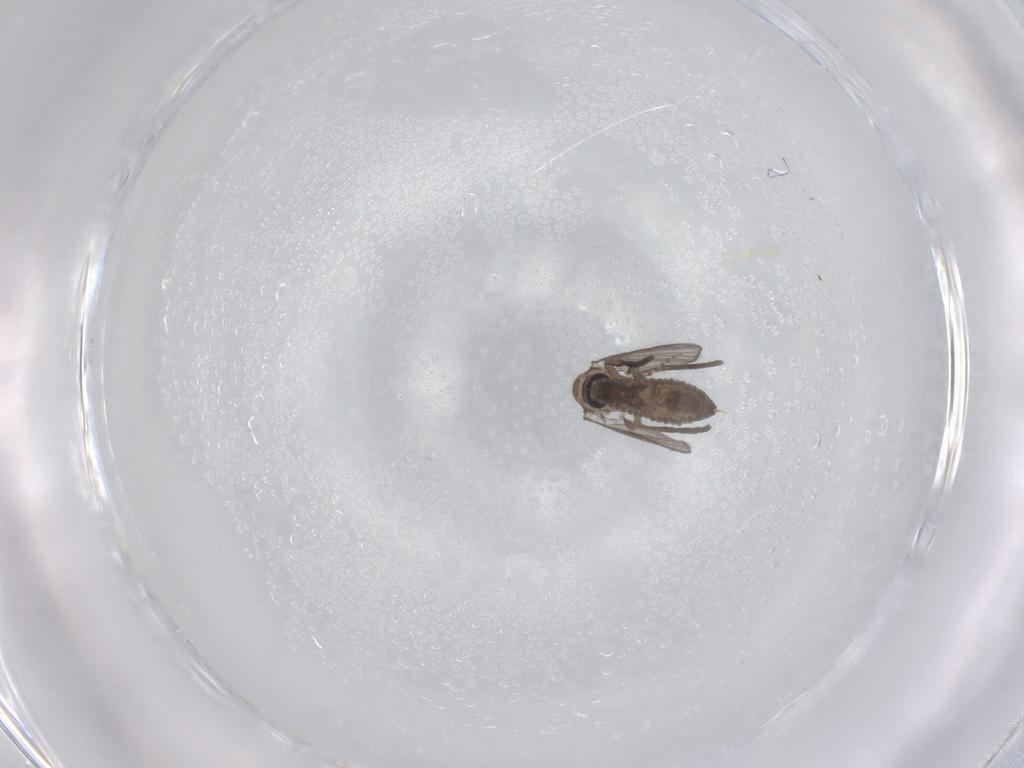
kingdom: Animalia
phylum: Arthropoda
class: Insecta
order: Diptera
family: Psychodidae
